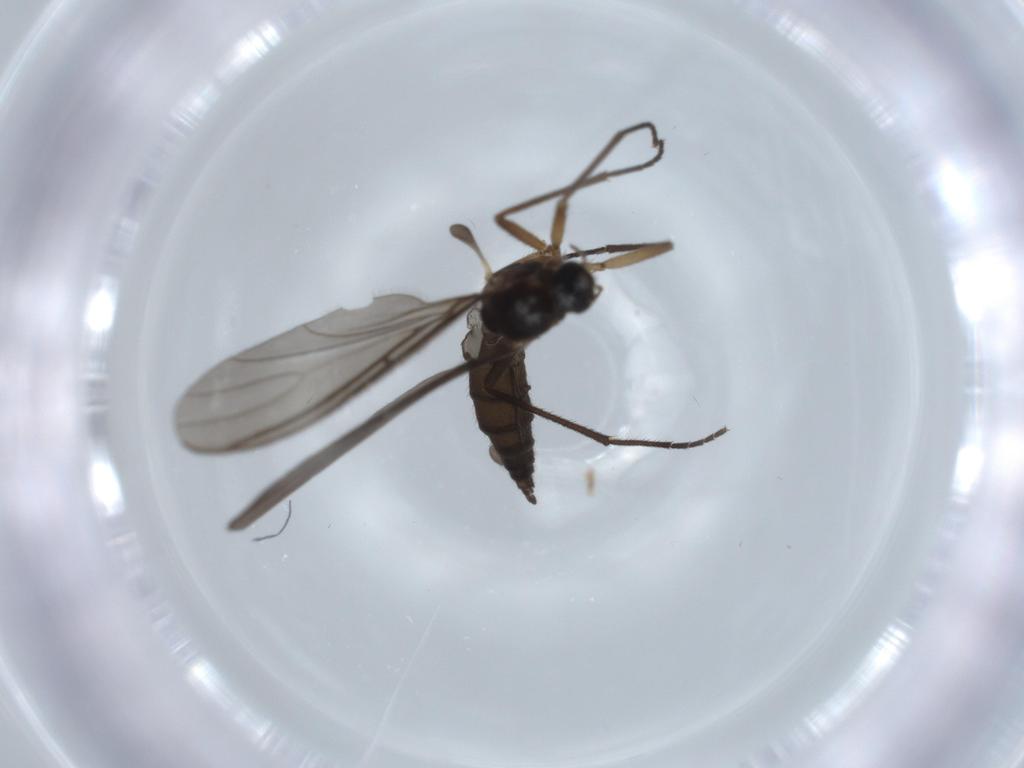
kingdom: Animalia
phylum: Arthropoda
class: Insecta
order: Diptera
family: Sciaridae
